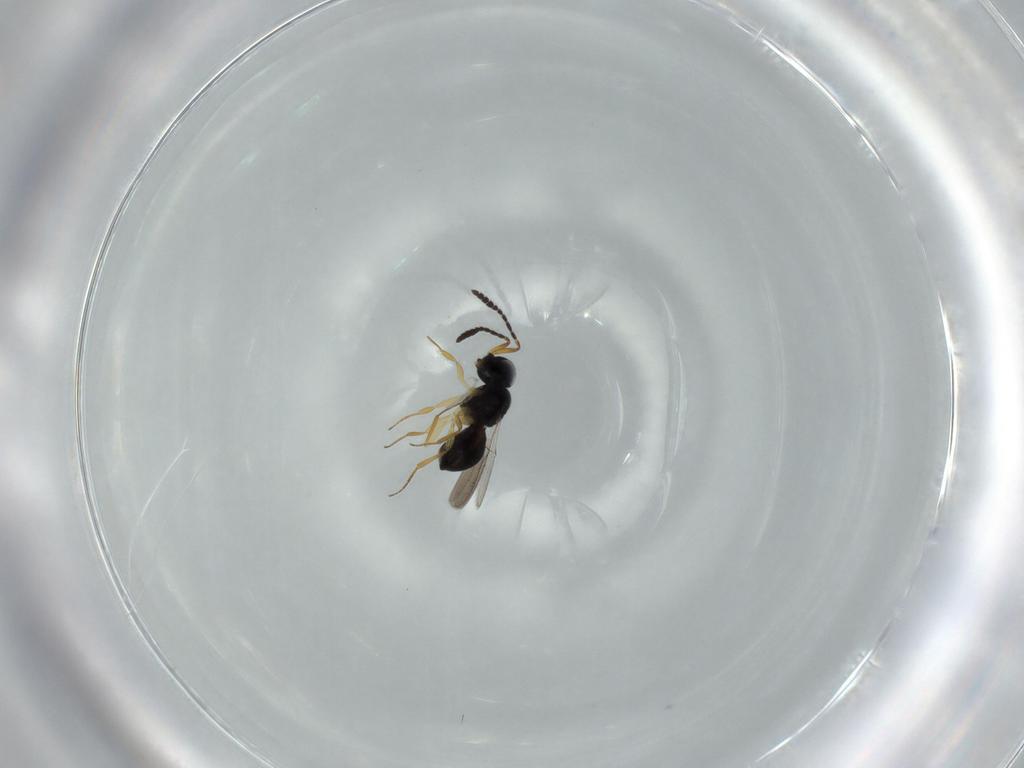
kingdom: Animalia
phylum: Arthropoda
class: Insecta
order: Hymenoptera
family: Scelionidae
